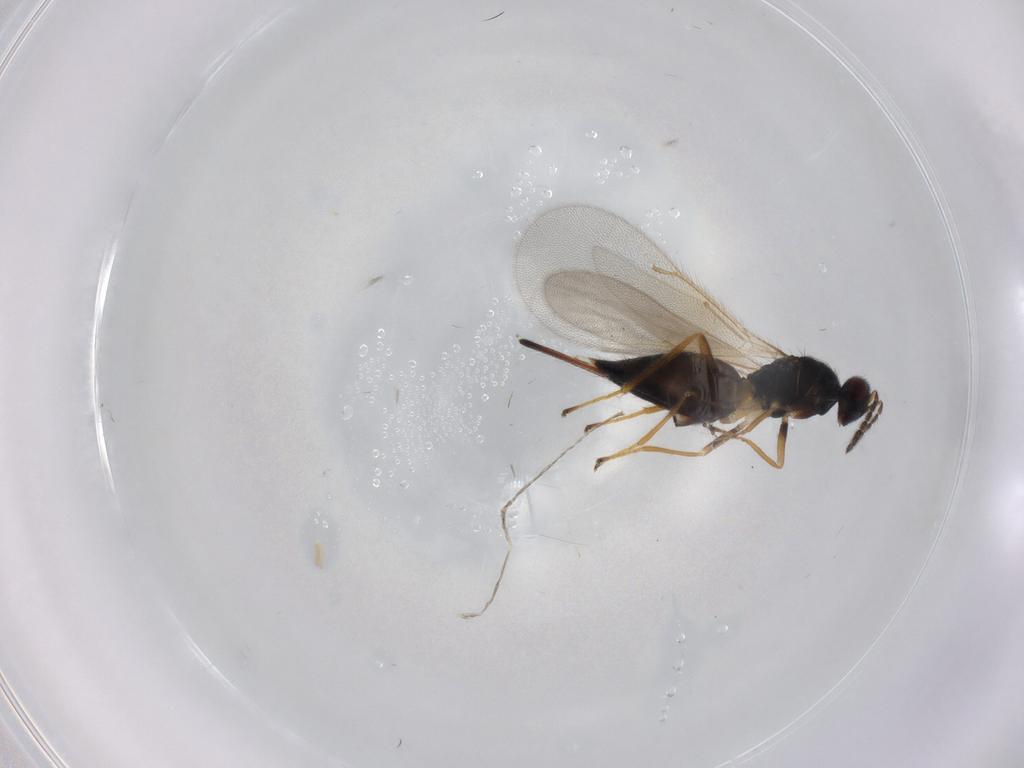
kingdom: Animalia
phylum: Arthropoda
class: Insecta
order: Hymenoptera
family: Eulophidae
